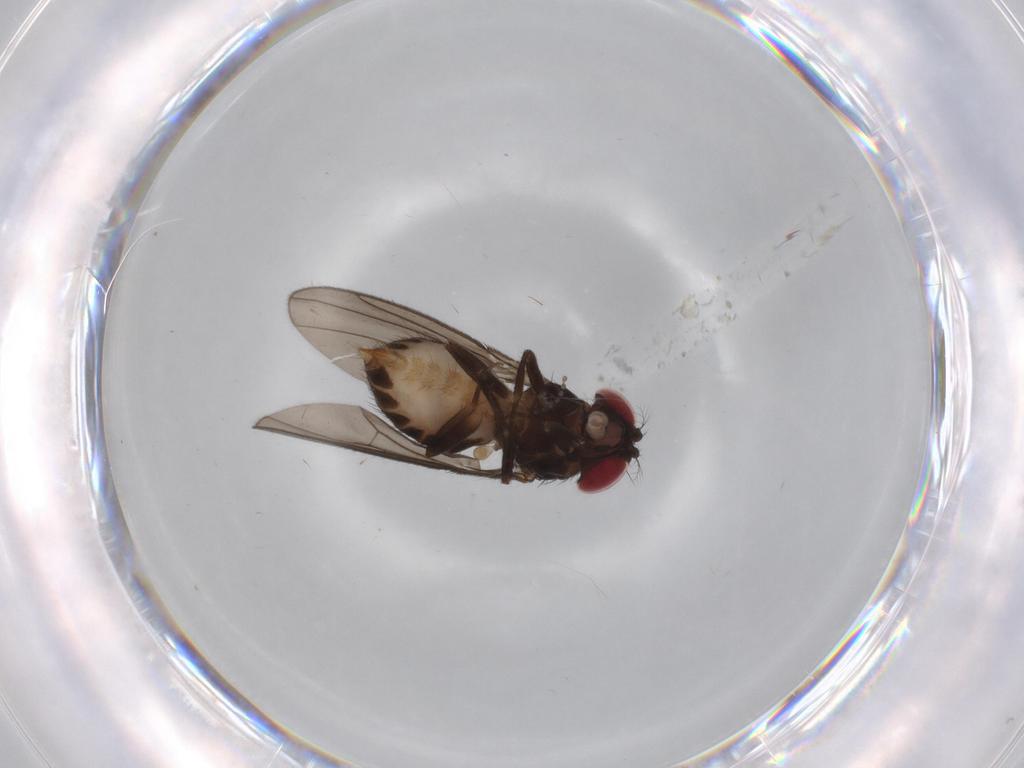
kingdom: Animalia
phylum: Arthropoda
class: Insecta
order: Diptera
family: Drosophilidae
